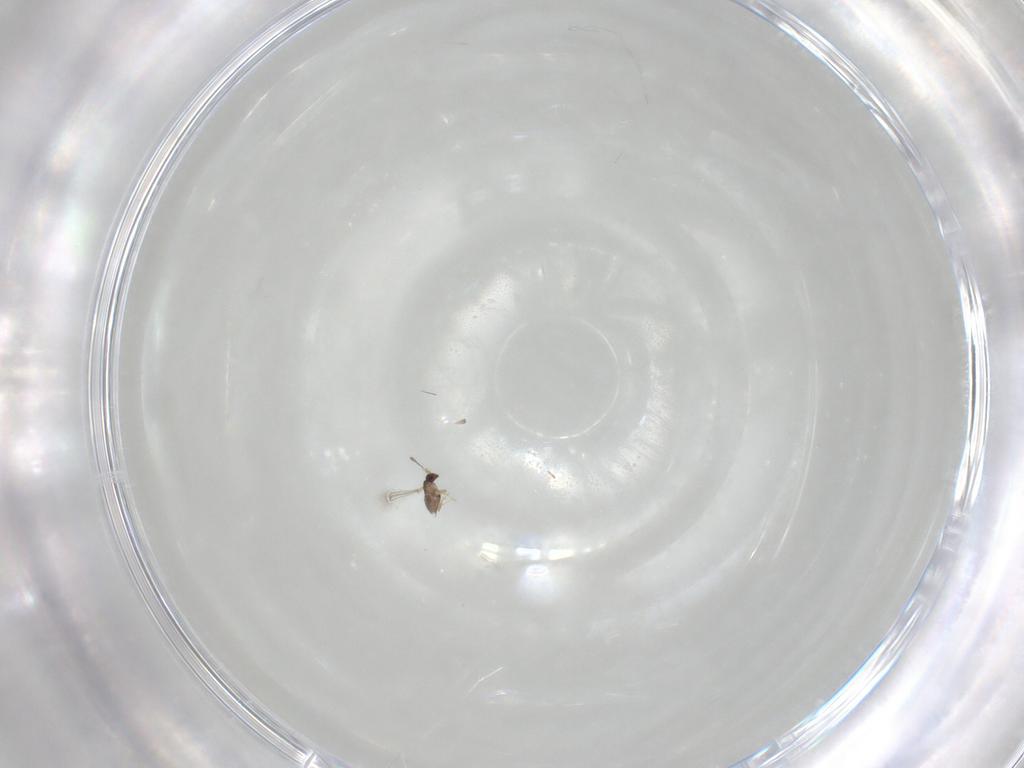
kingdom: Animalia
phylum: Arthropoda
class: Insecta
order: Hymenoptera
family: Mymaridae
